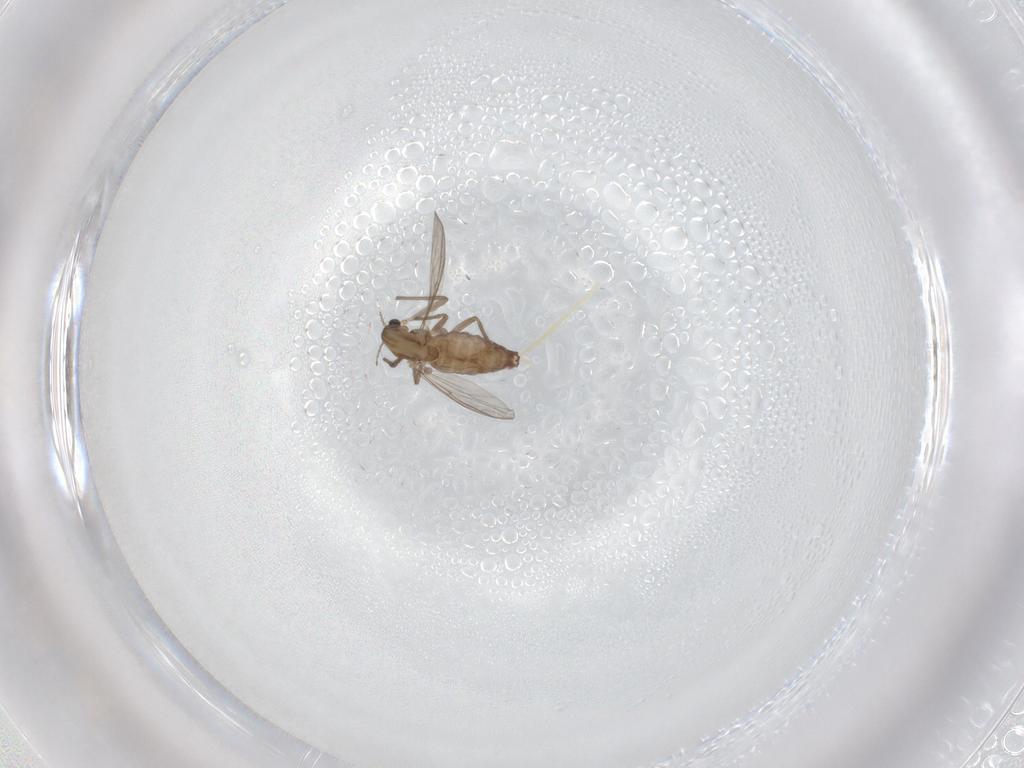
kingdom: Animalia
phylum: Arthropoda
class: Insecta
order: Diptera
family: Chironomidae
